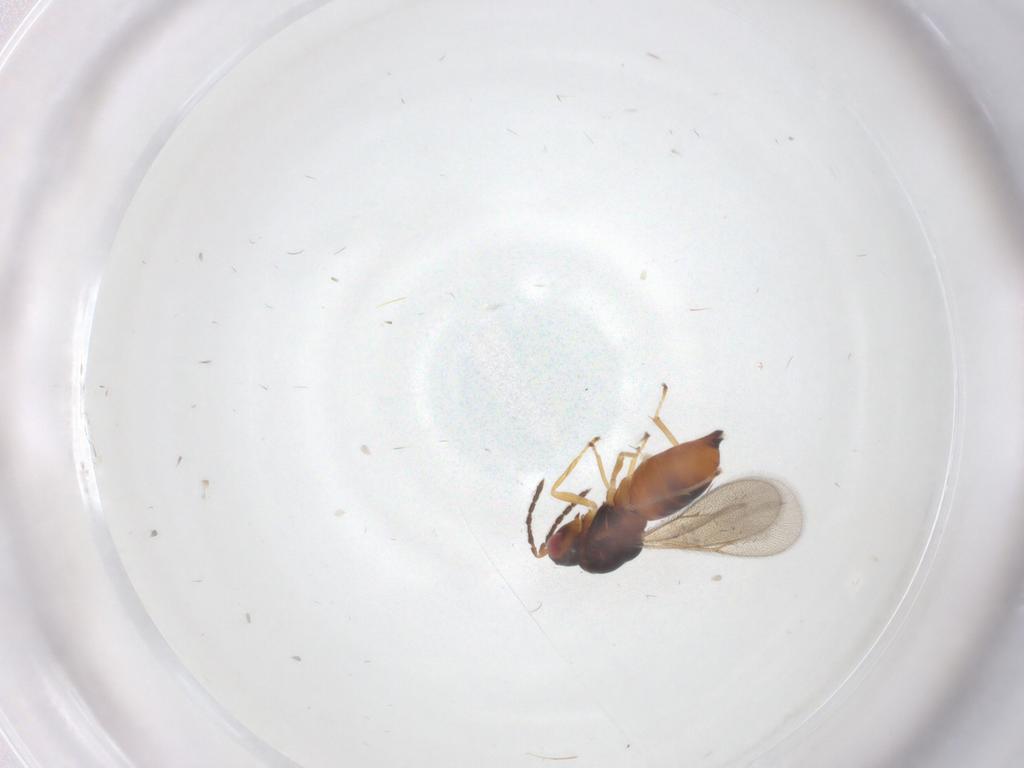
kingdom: Animalia
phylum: Arthropoda
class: Insecta
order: Hymenoptera
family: Eulophidae
